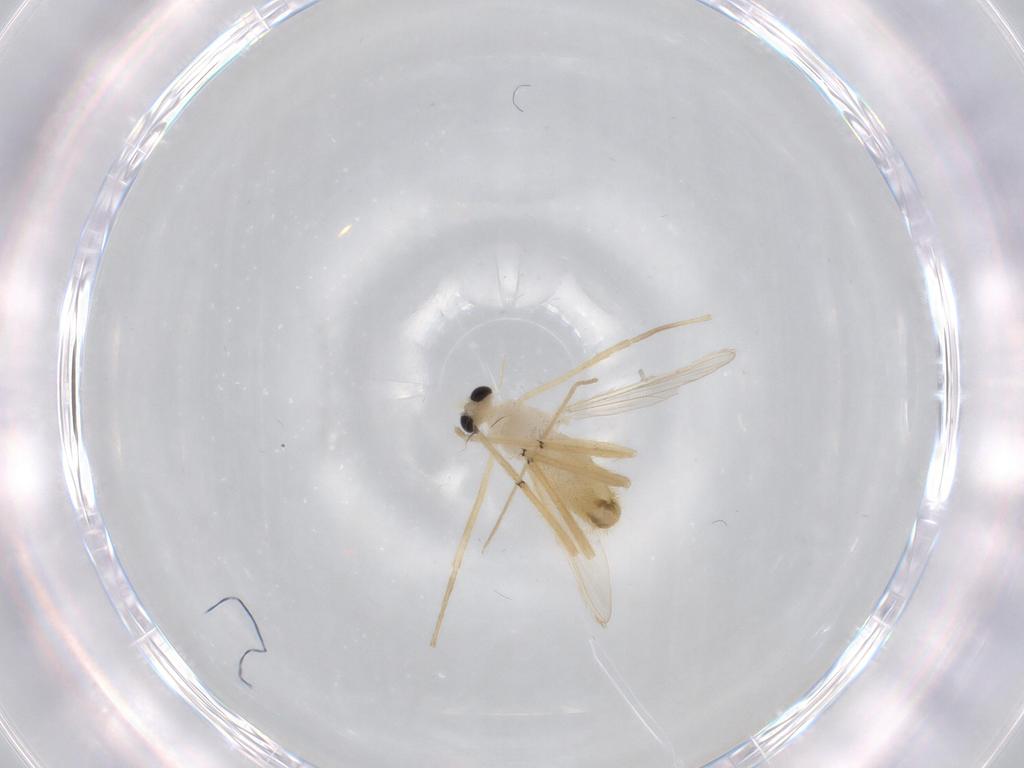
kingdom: Animalia
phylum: Arthropoda
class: Insecta
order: Diptera
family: Chironomidae
